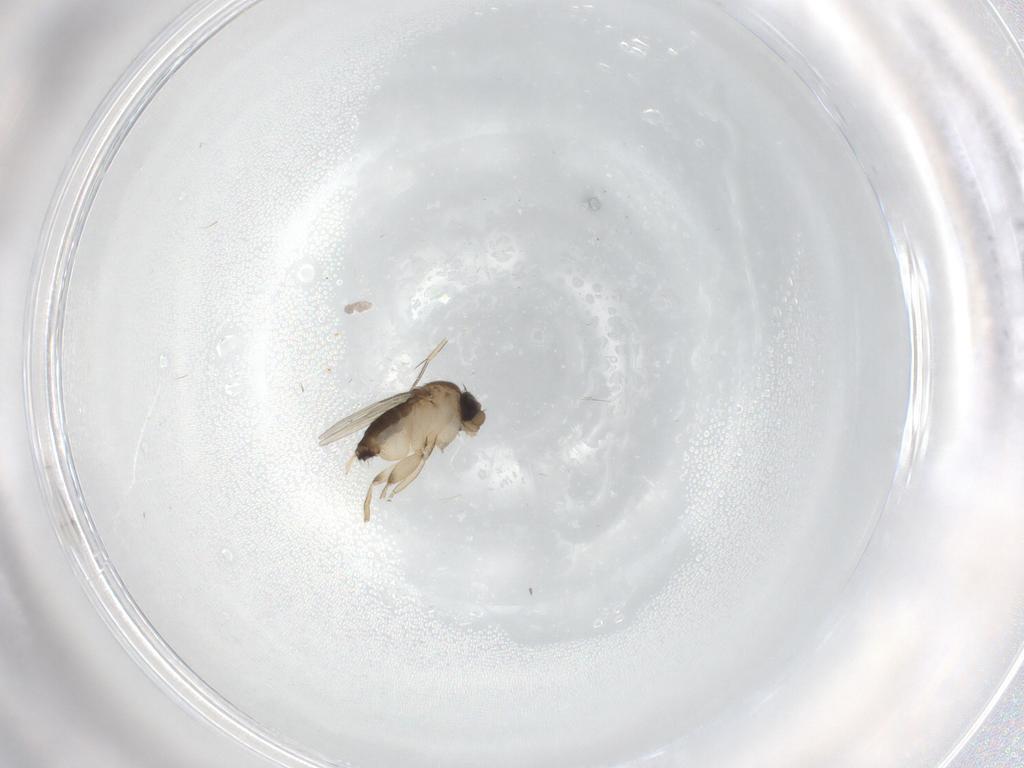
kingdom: Animalia
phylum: Arthropoda
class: Insecta
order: Diptera
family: Phoridae
